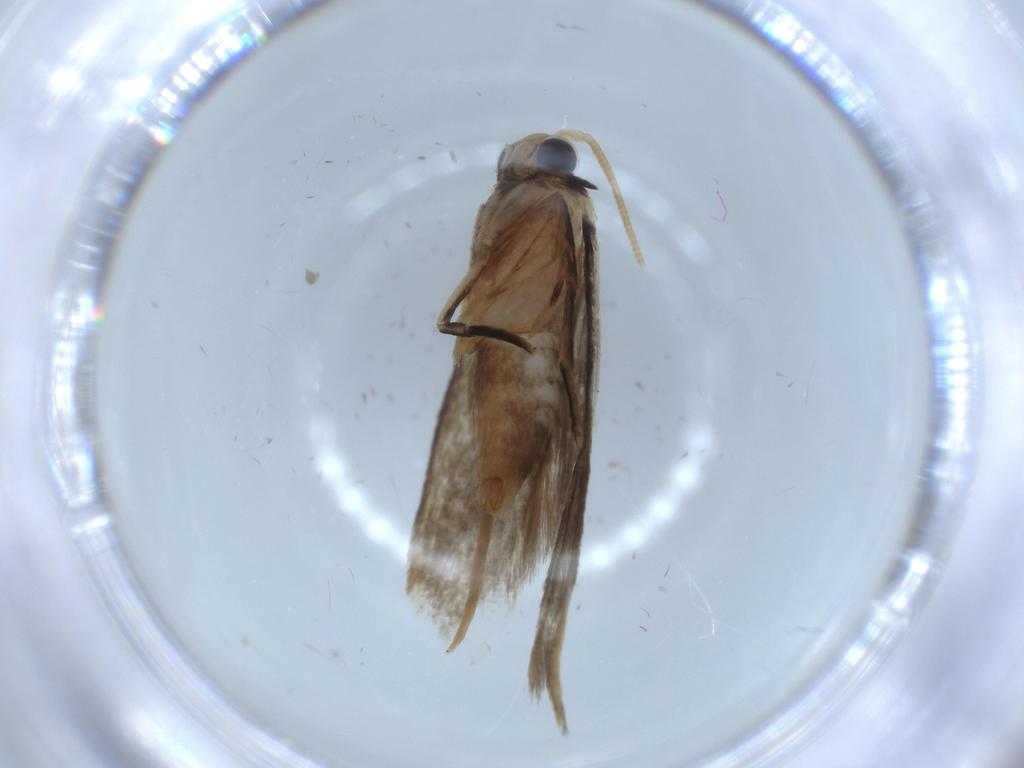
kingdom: Animalia
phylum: Arthropoda
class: Insecta
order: Lepidoptera
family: Tineidae
